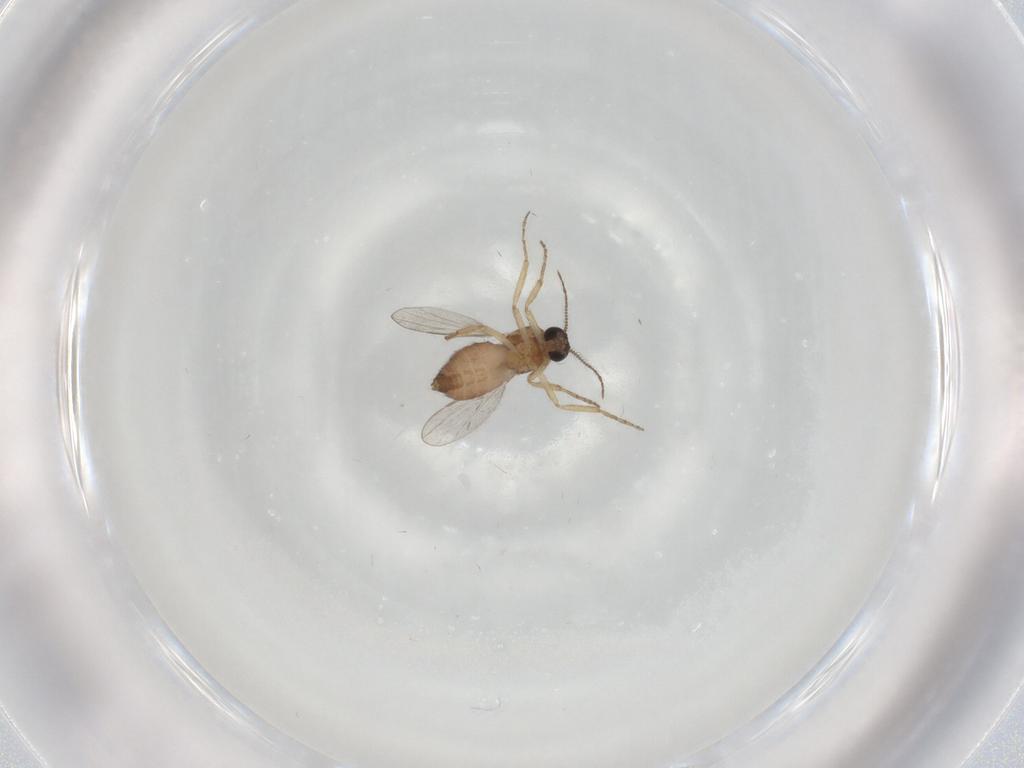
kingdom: Animalia
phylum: Arthropoda
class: Insecta
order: Diptera
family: Ceratopogonidae
